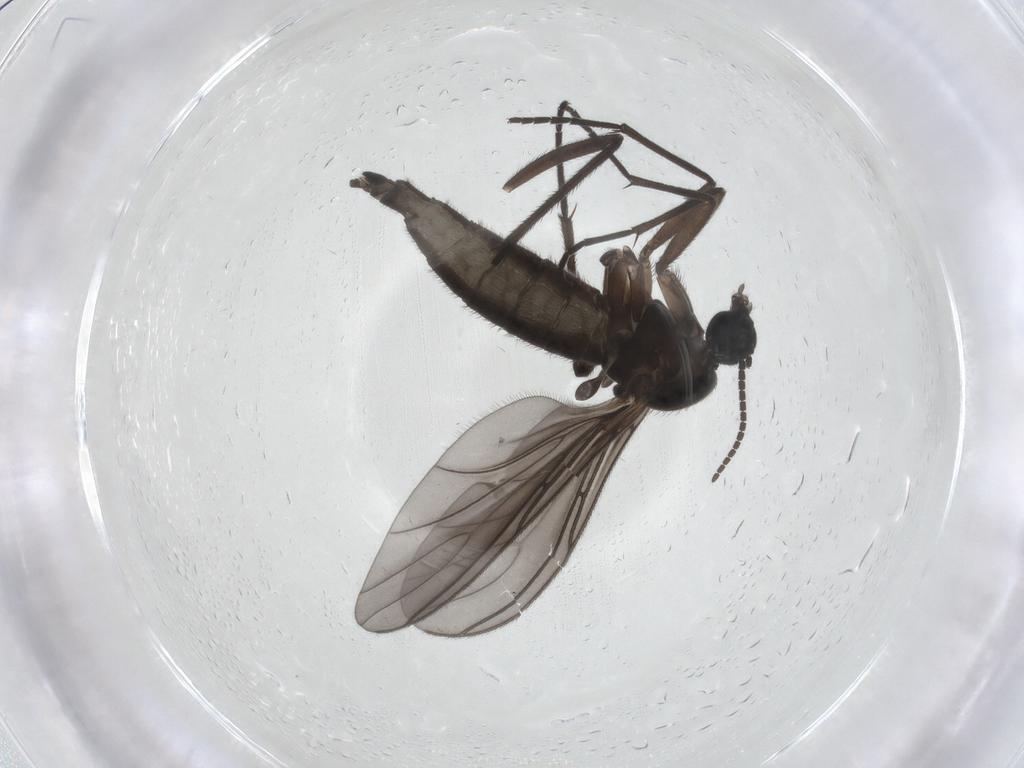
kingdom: Animalia
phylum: Arthropoda
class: Insecta
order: Diptera
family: Sciaridae
